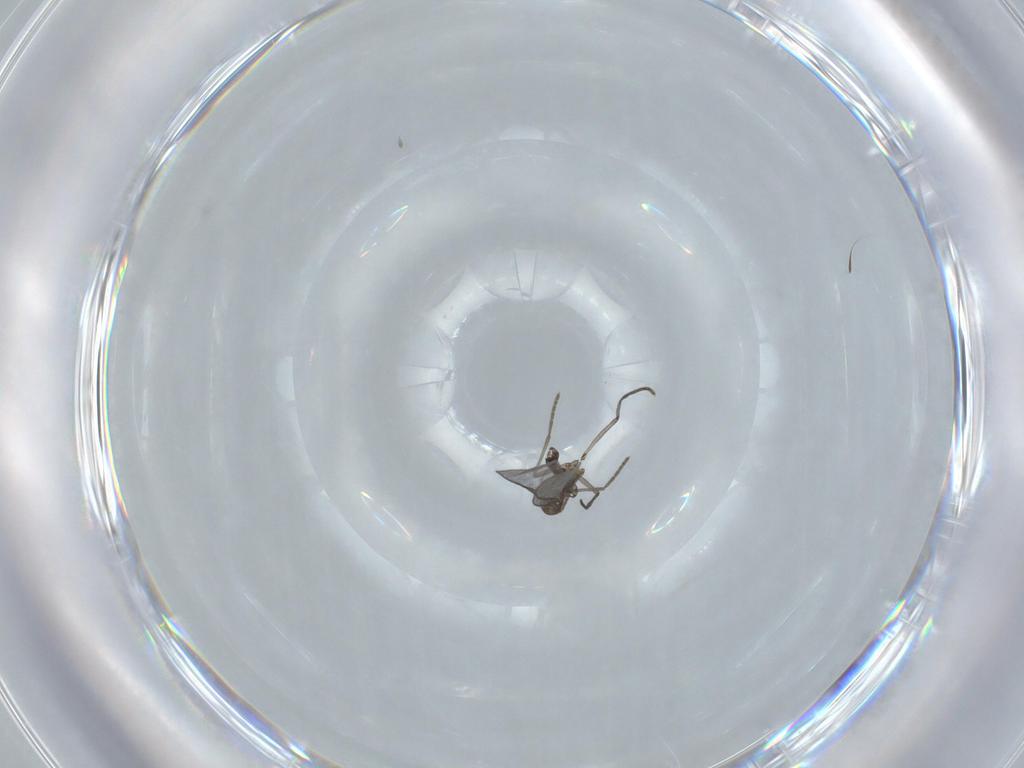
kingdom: Animalia
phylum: Arthropoda
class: Insecta
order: Diptera
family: Sciaridae
